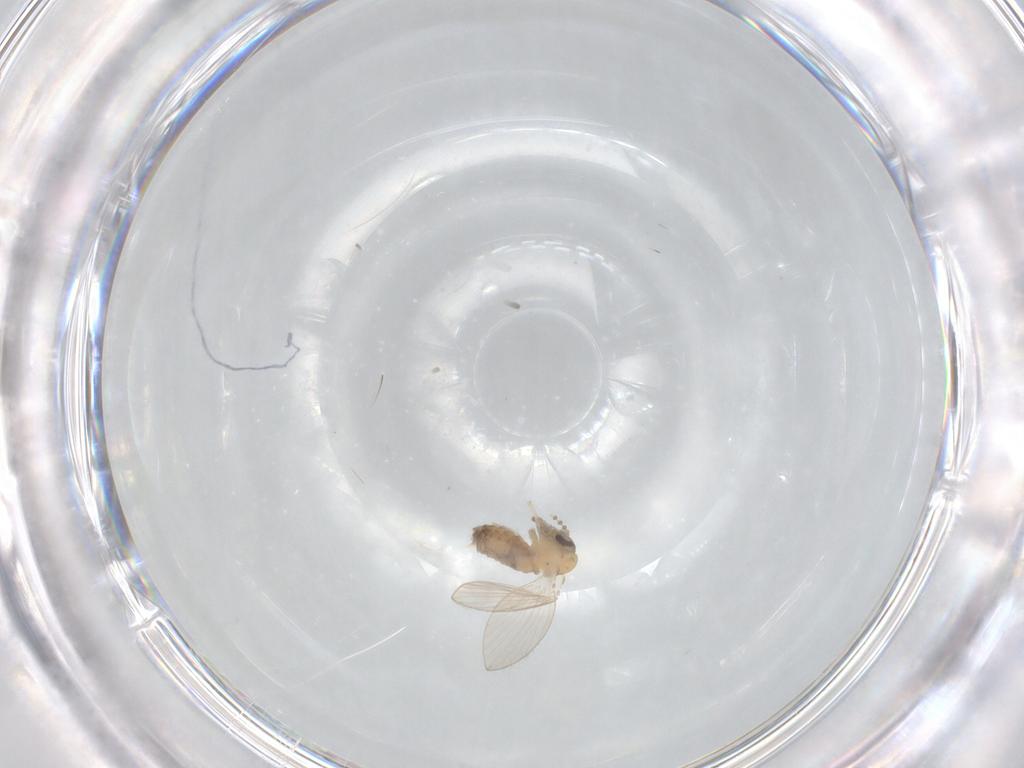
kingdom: Animalia
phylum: Arthropoda
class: Insecta
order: Diptera
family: Psychodidae
